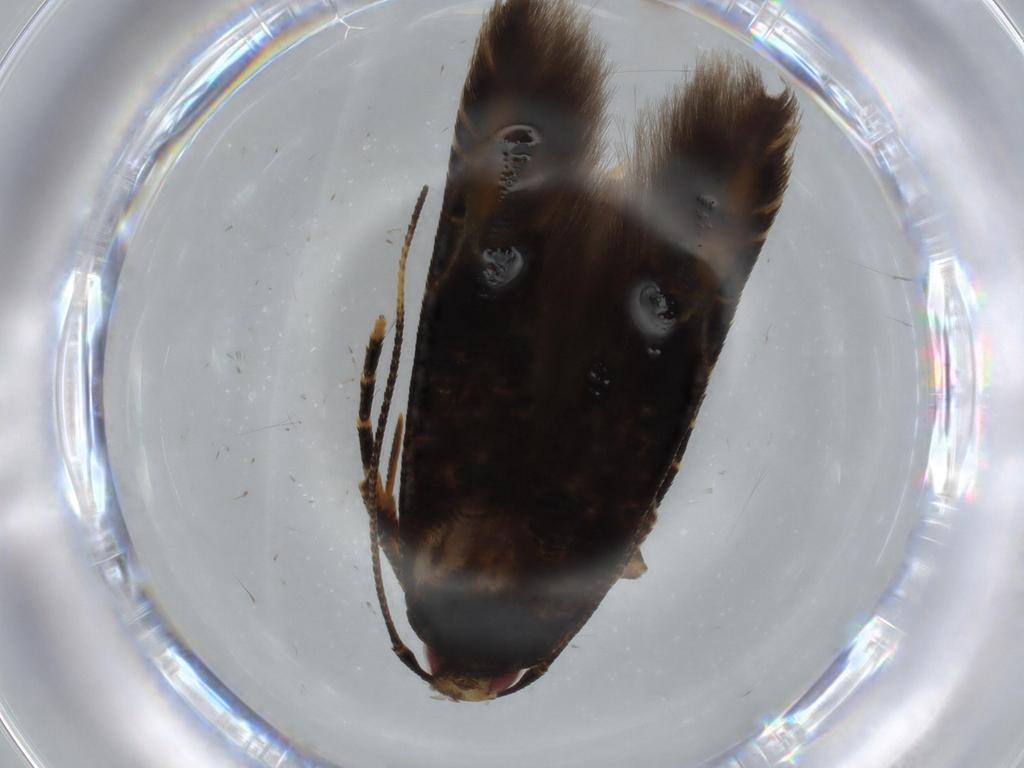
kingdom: Animalia
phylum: Arthropoda
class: Insecta
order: Lepidoptera
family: Cosmopterigidae
